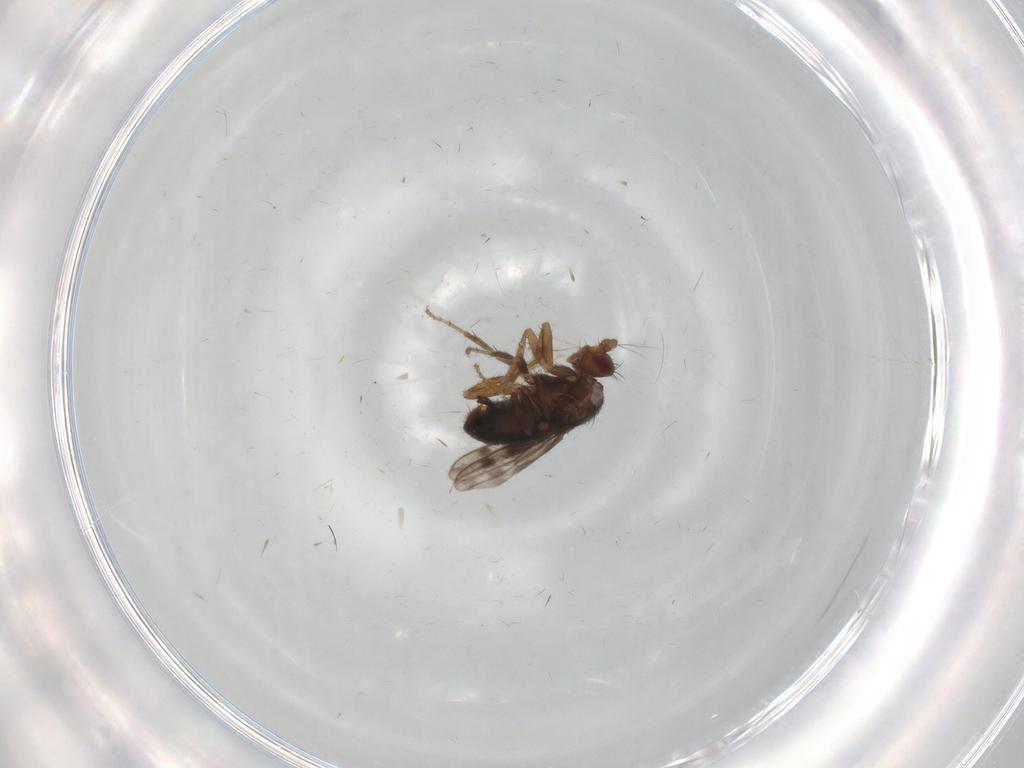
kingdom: Animalia
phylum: Arthropoda
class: Insecta
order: Diptera
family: Sphaeroceridae
